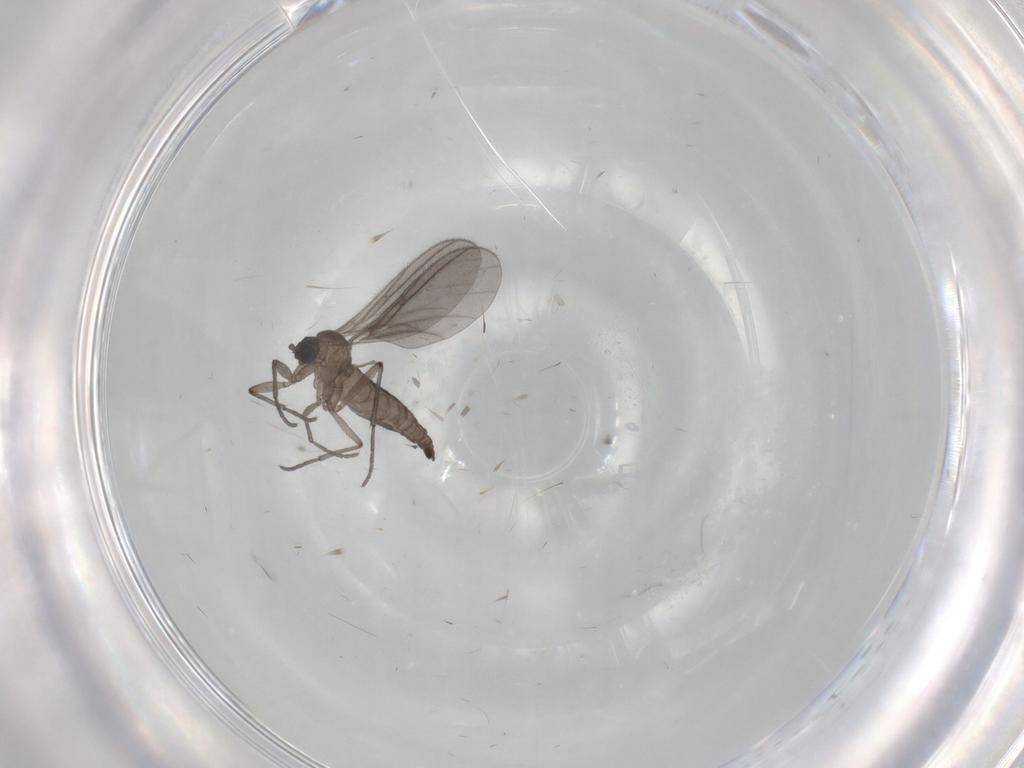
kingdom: Animalia
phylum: Arthropoda
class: Insecta
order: Diptera
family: Sciaridae
